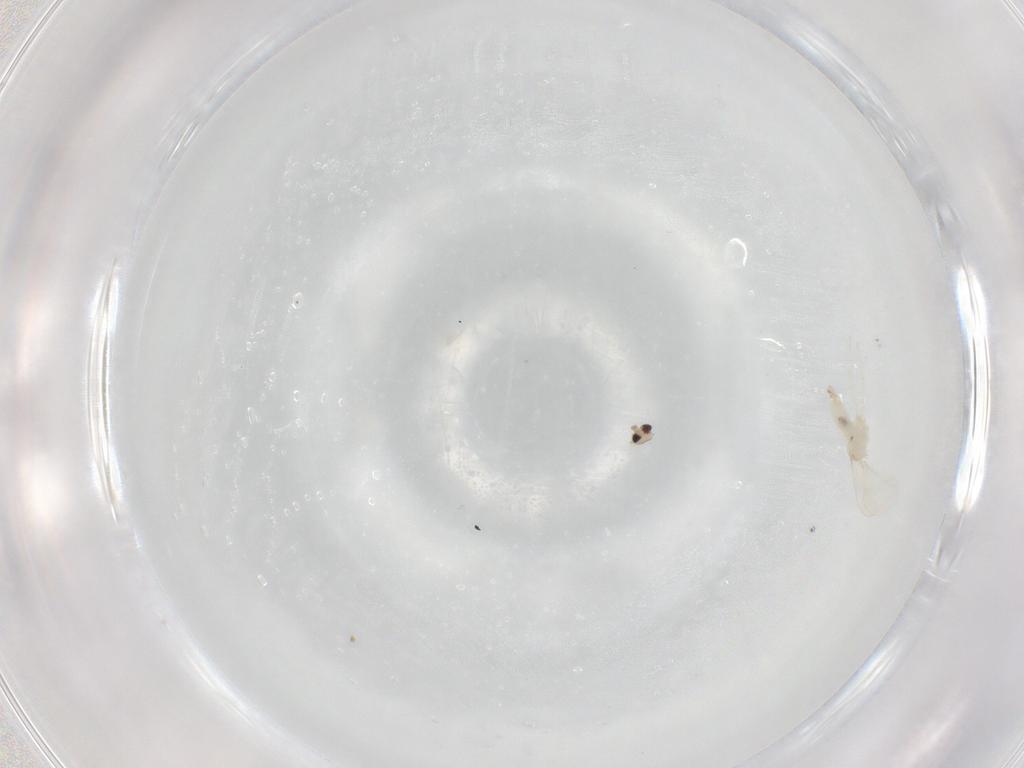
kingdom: Animalia
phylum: Arthropoda
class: Insecta
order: Diptera
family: Cecidomyiidae
